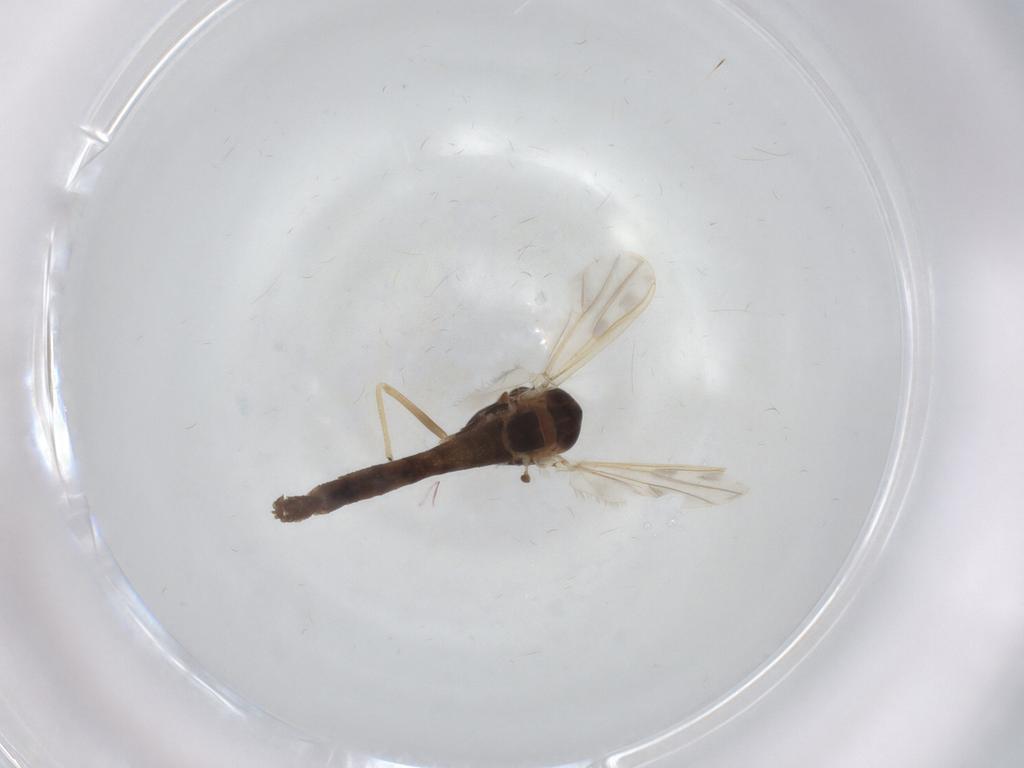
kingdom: Animalia
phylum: Arthropoda
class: Insecta
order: Diptera
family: Chironomidae
